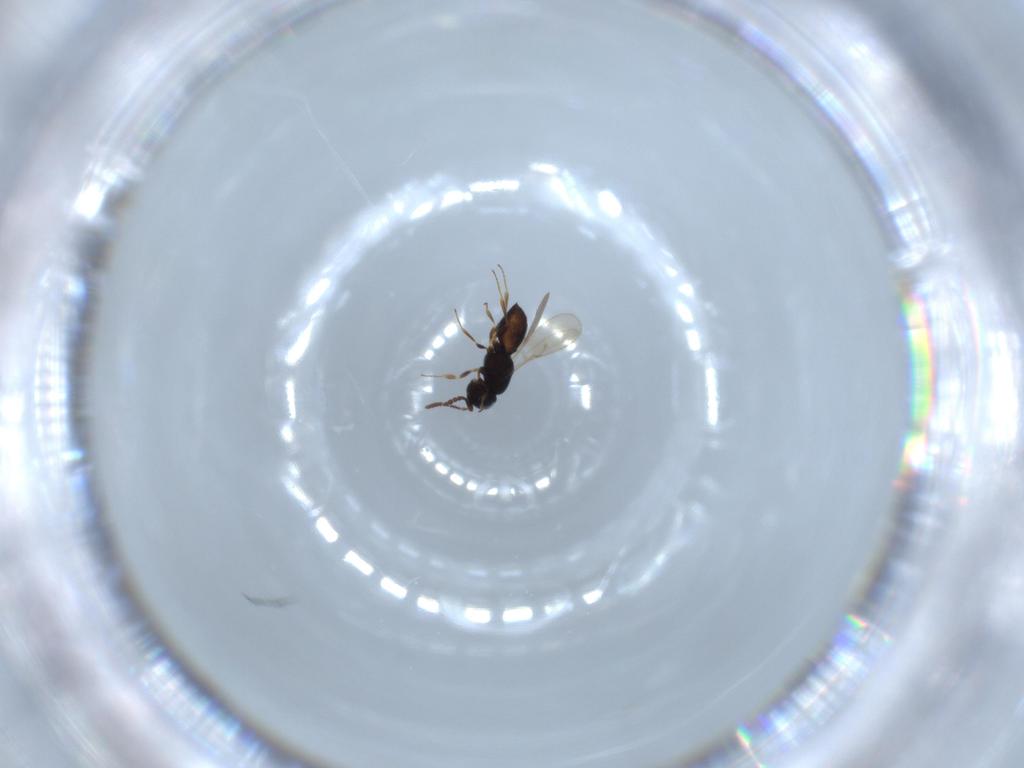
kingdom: Animalia
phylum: Arthropoda
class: Insecta
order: Hymenoptera
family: Scelionidae
